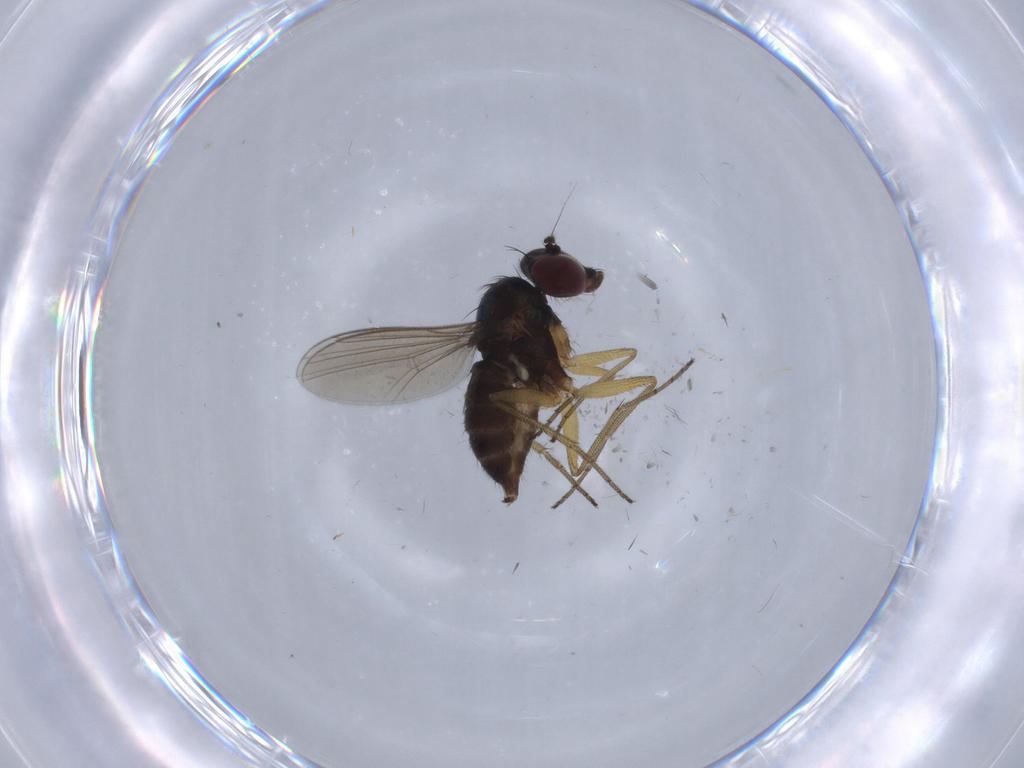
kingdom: Animalia
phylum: Arthropoda
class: Insecta
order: Diptera
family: Dolichopodidae
